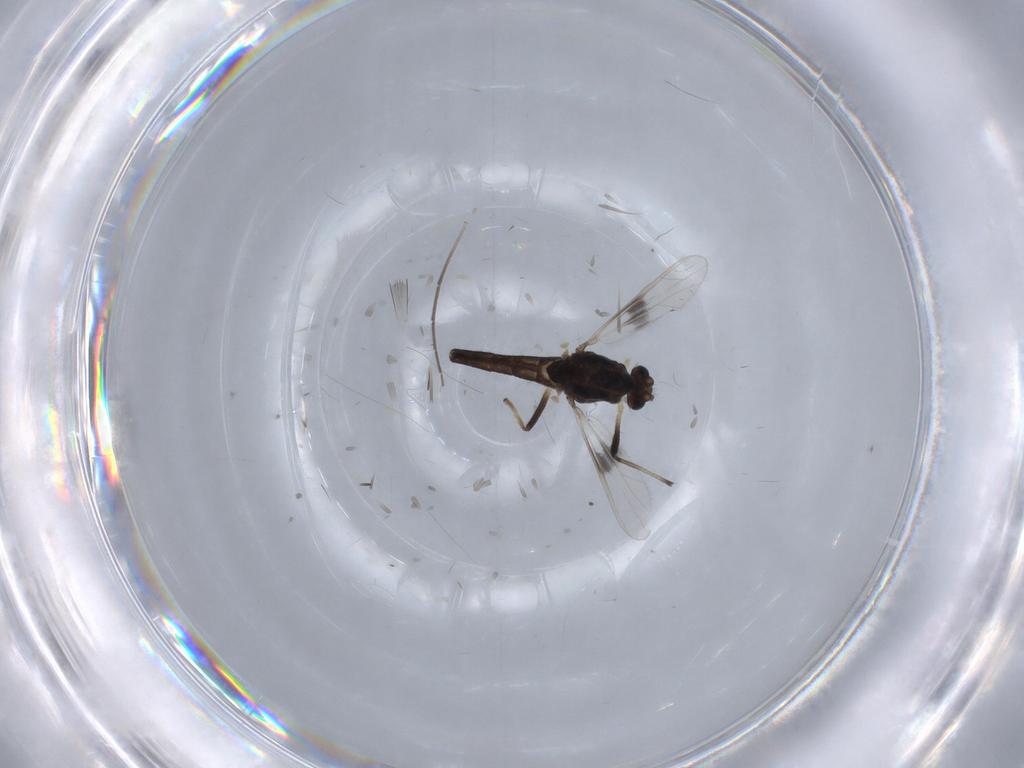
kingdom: Animalia
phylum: Arthropoda
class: Insecta
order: Diptera
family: Chironomidae
